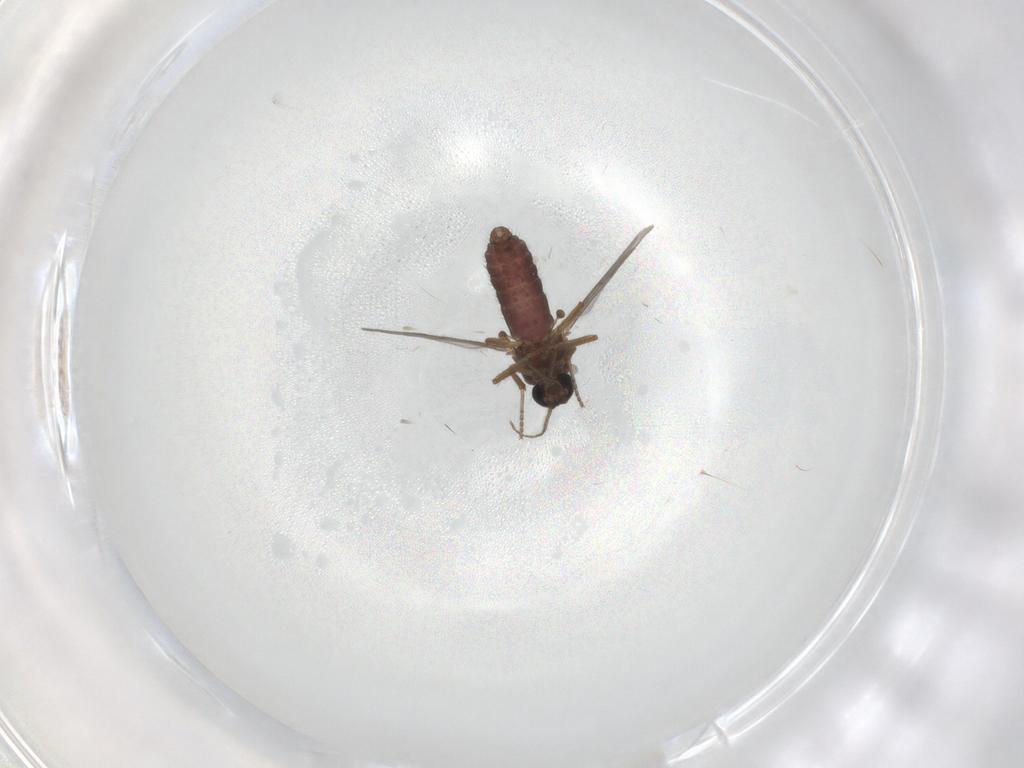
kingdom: Animalia
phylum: Arthropoda
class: Insecta
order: Diptera
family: Ceratopogonidae
